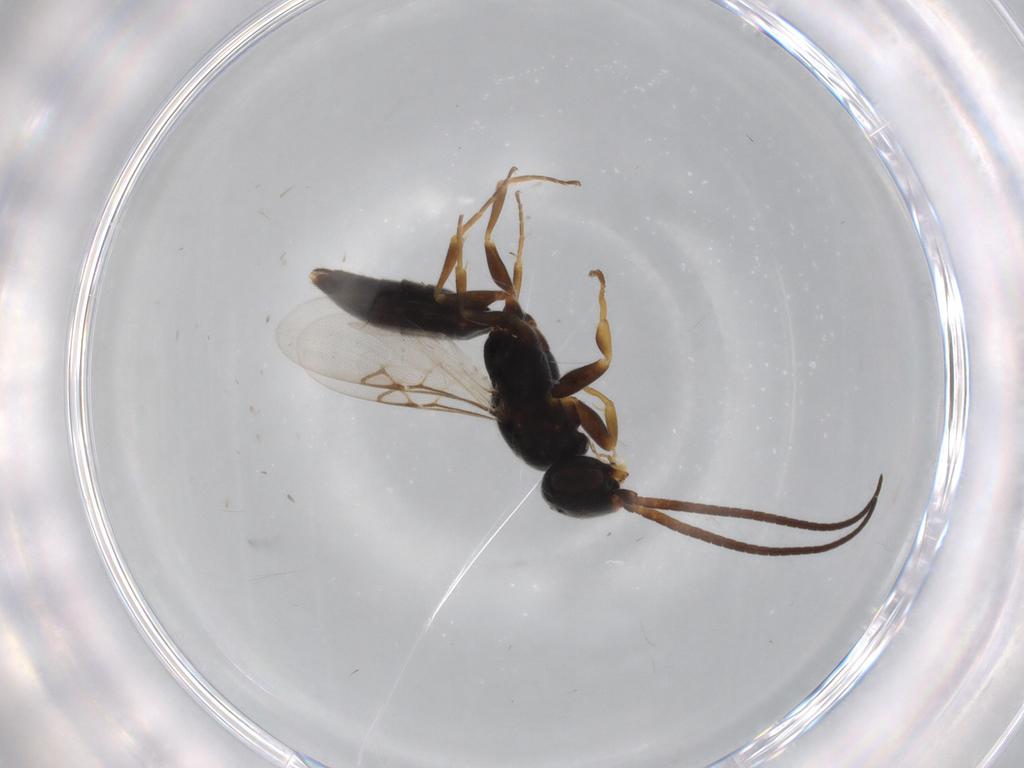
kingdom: Animalia
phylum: Arthropoda
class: Insecta
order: Hymenoptera
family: Sclerogibbidae
